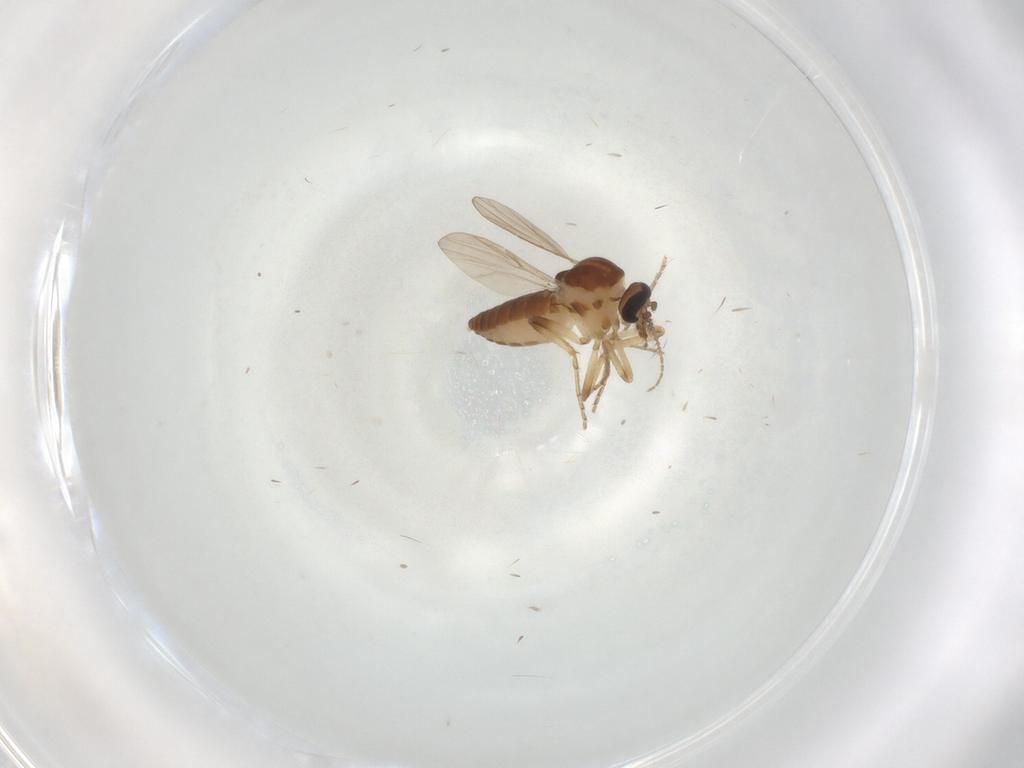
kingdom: Animalia
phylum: Arthropoda
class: Insecta
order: Diptera
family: Ceratopogonidae
